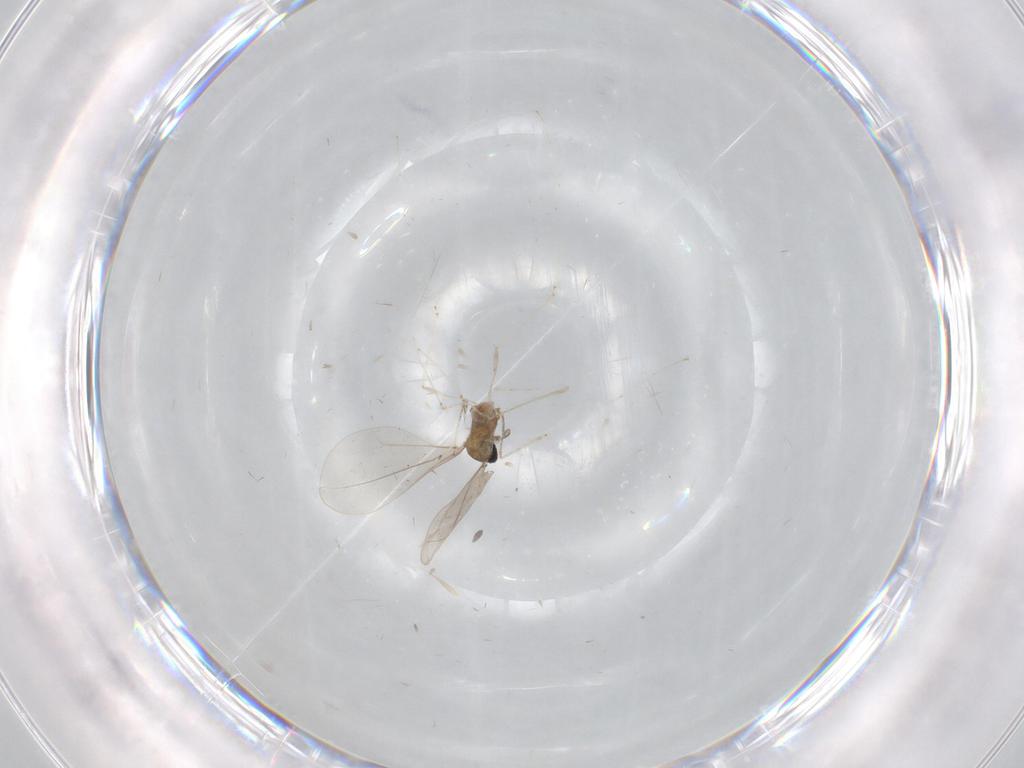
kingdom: Animalia
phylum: Arthropoda
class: Insecta
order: Diptera
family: Cecidomyiidae
